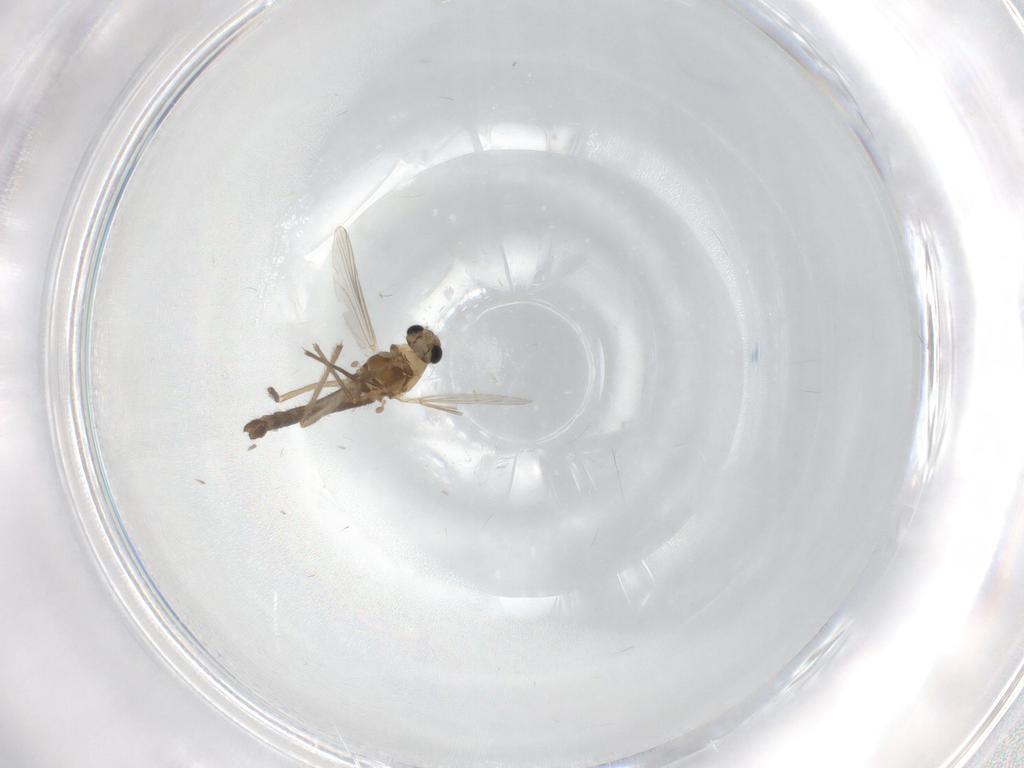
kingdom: Animalia
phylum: Arthropoda
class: Insecta
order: Diptera
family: Chironomidae
